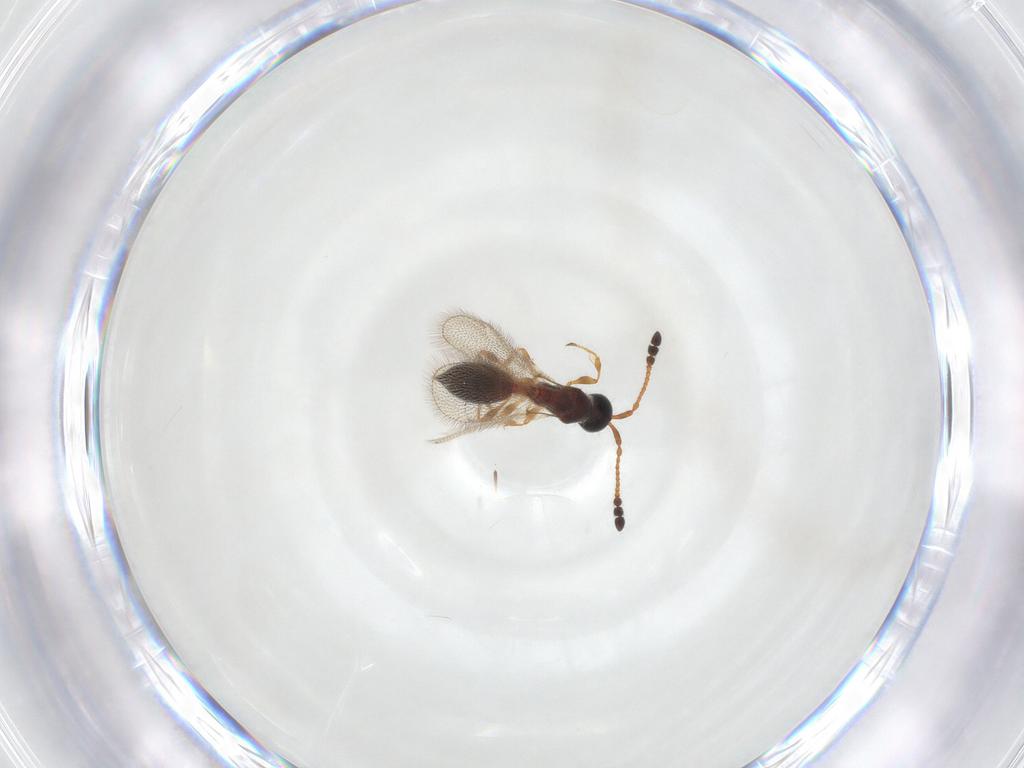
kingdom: Animalia
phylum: Arthropoda
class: Insecta
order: Hymenoptera
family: Diapriidae
